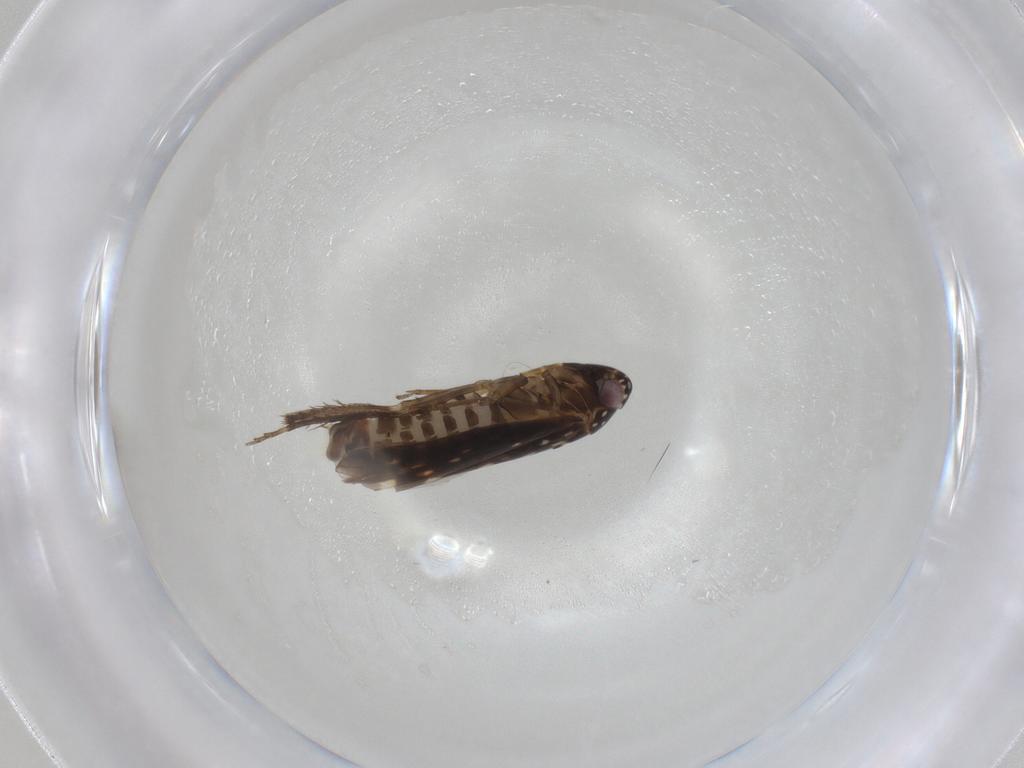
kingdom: Animalia
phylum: Arthropoda
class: Insecta
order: Hemiptera
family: Cicadellidae
